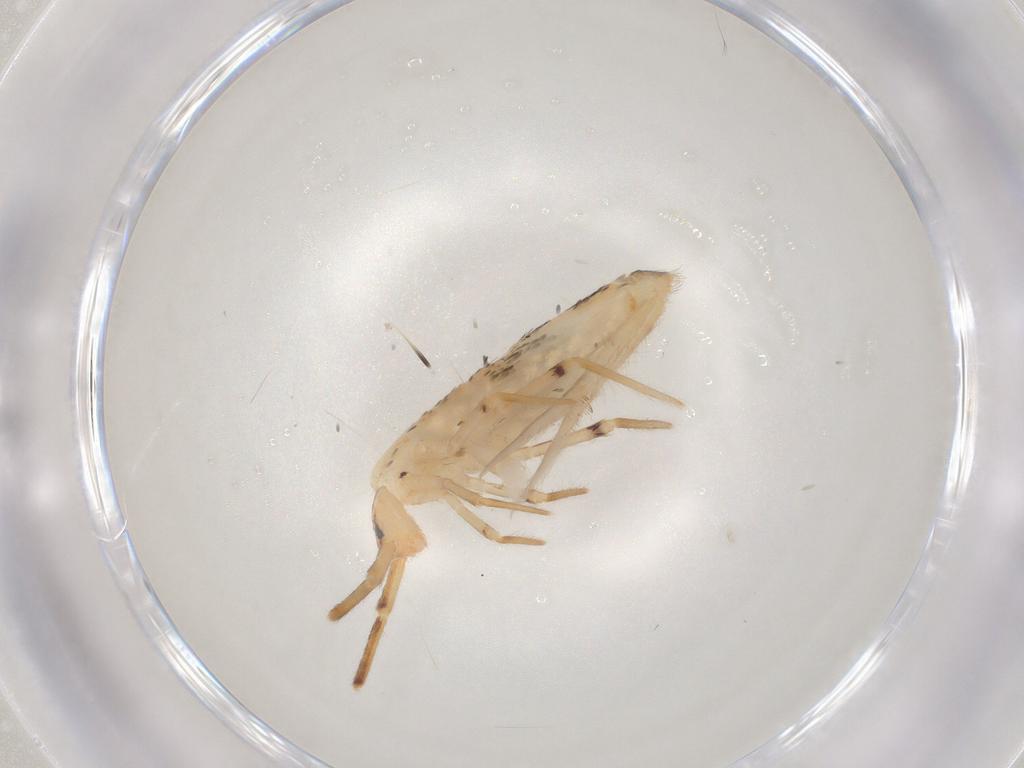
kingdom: Animalia
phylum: Arthropoda
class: Collembola
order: Entomobryomorpha
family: Entomobryidae
